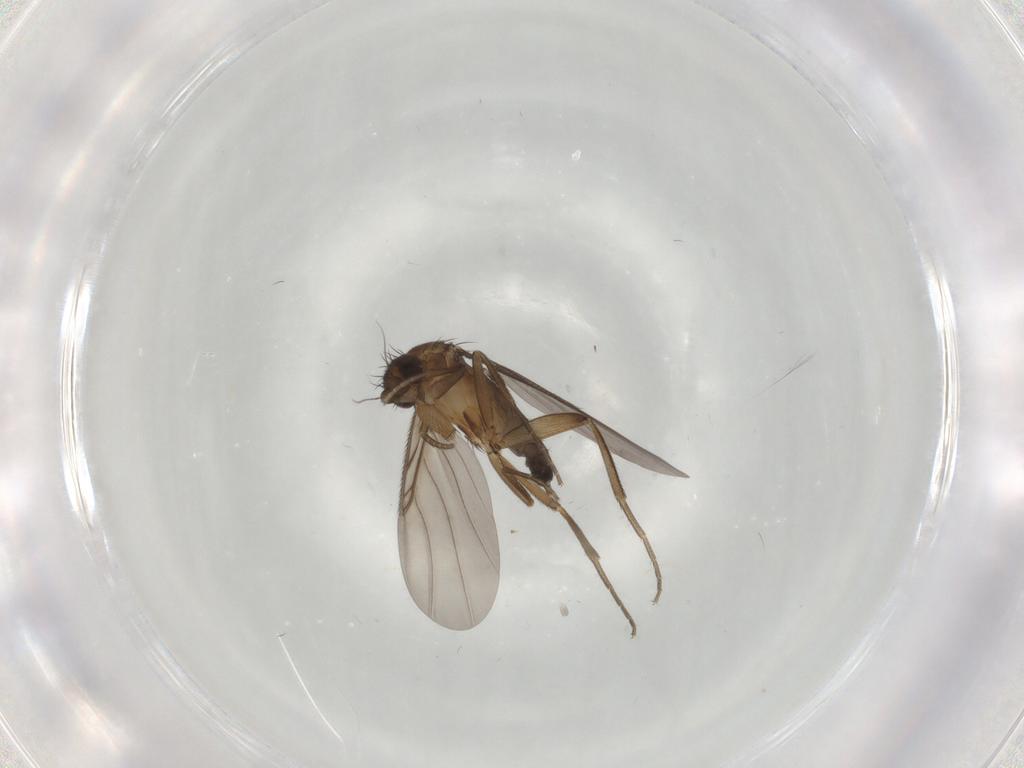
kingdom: Animalia
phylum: Arthropoda
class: Insecta
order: Diptera
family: Phoridae
